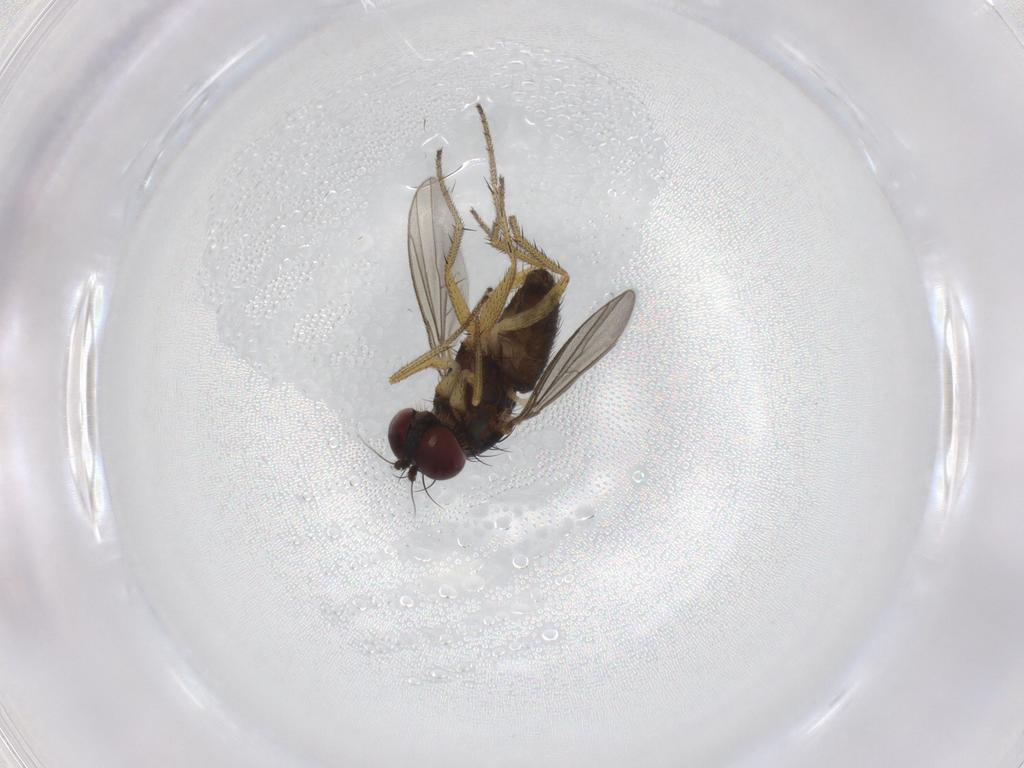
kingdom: Animalia
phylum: Arthropoda
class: Insecta
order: Diptera
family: Dolichopodidae
